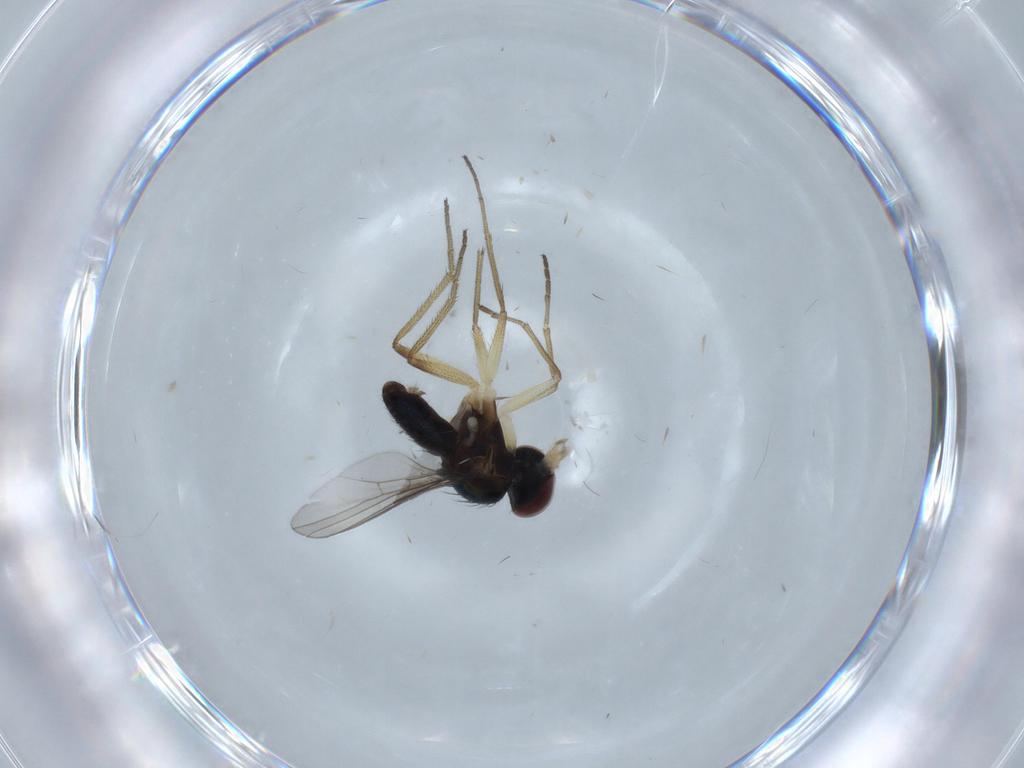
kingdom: Animalia
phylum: Arthropoda
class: Insecta
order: Diptera
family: Dolichopodidae
